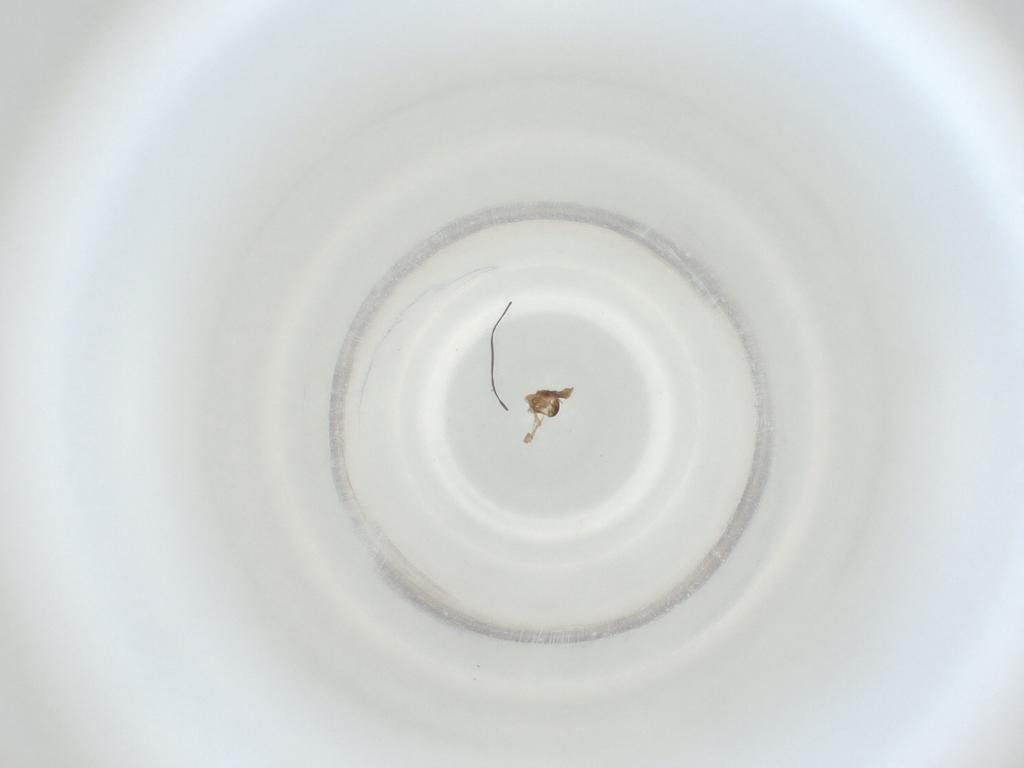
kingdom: Animalia
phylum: Arthropoda
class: Insecta
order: Diptera
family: Cecidomyiidae
